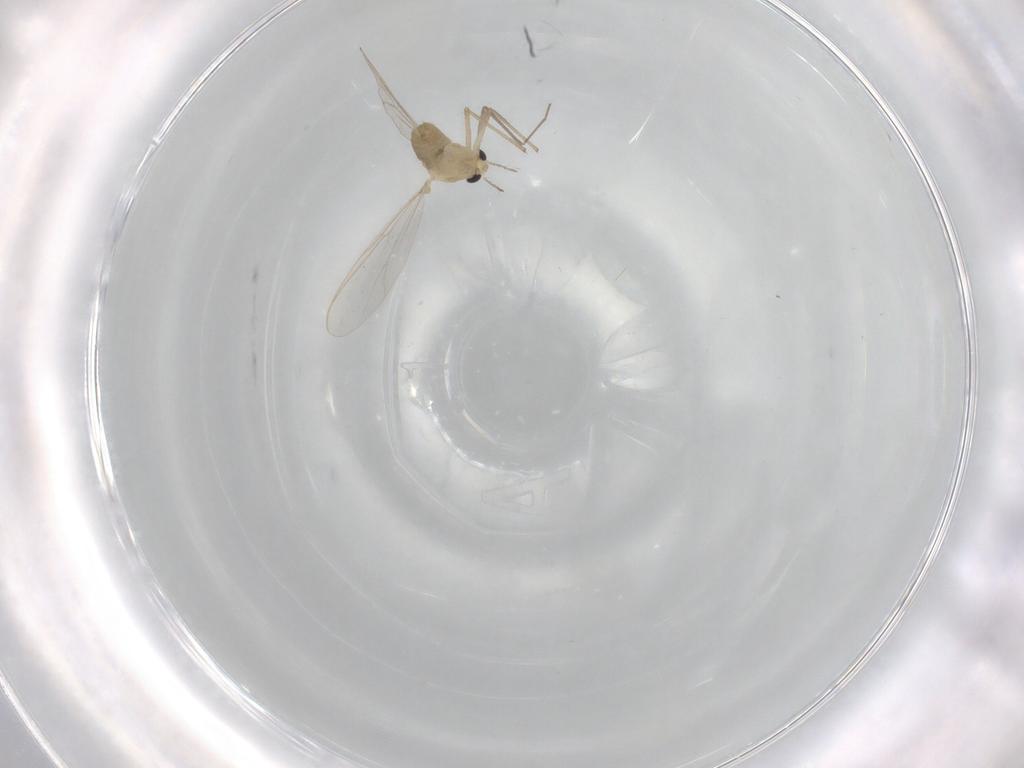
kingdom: Animalia
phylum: Arthropoda
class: Insecta
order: Diptera
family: Chironomidae
